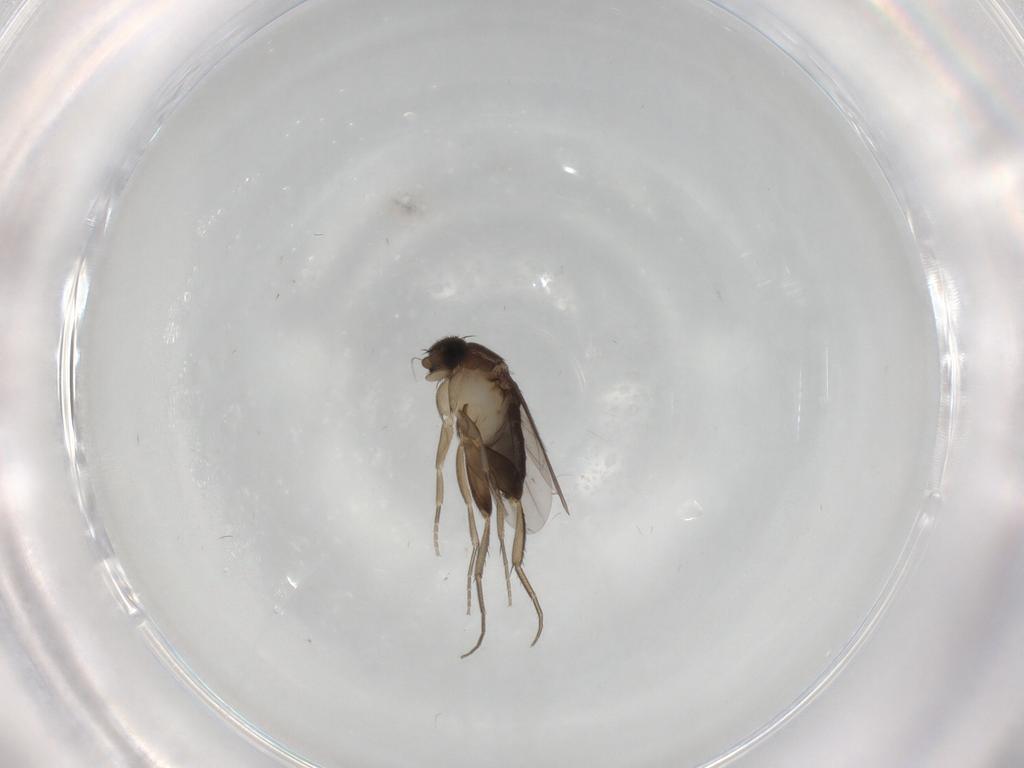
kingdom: Animalia
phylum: Arthropoda
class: Insecta
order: Diptera
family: Phoridae
